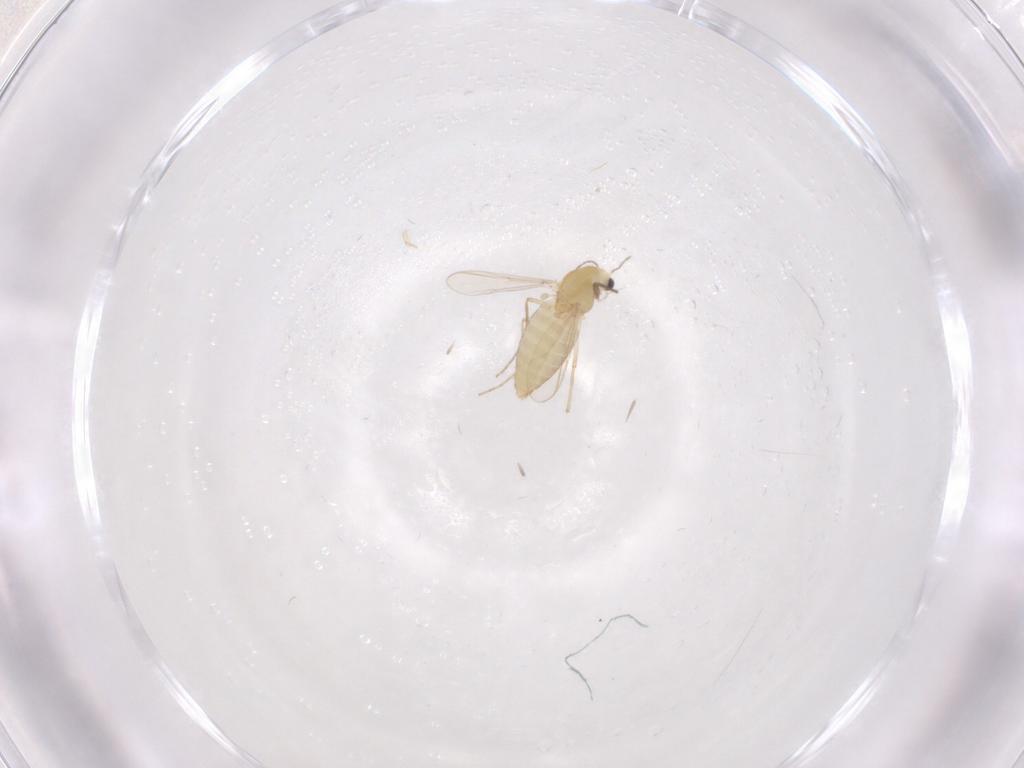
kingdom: Animalia
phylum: Arthropoda
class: Insecta
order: Diptera
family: Chironomidae
